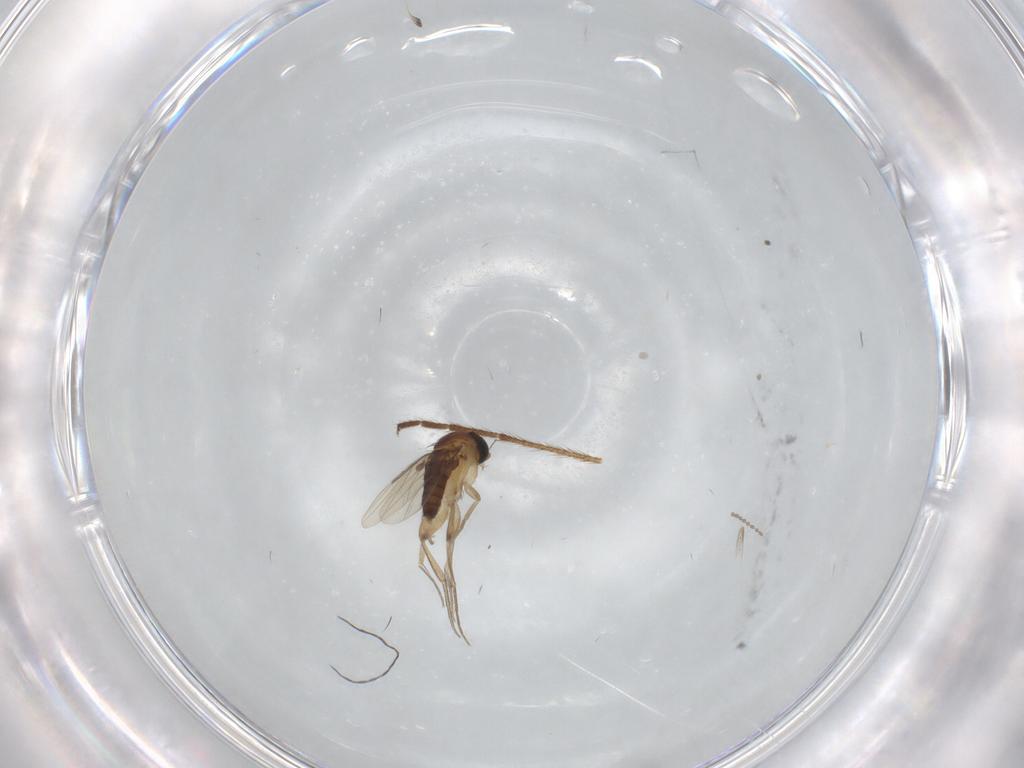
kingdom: Animalia
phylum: Arthropoda
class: Insecta
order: Diptera
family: Phoridae
